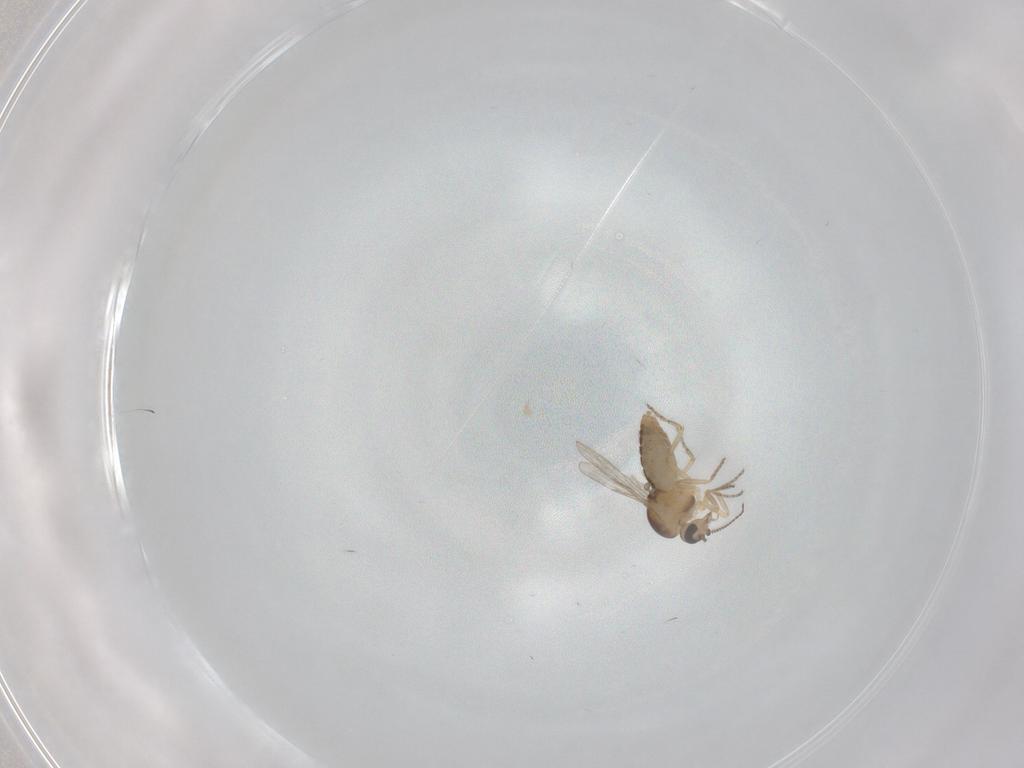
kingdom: Animalia
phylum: Arthropoda
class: Insecta
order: Diptera
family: Ceratopogonidae
